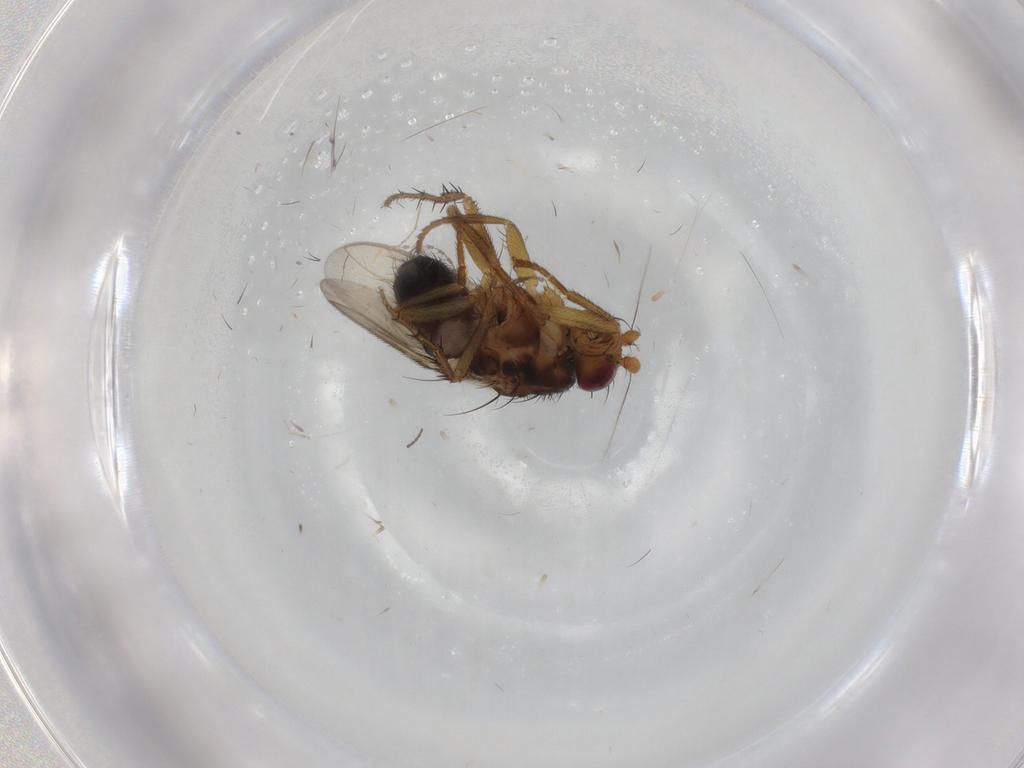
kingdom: Animalia
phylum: Arthropoda
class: Insecta
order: Diptera
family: Sphaeroceridae
